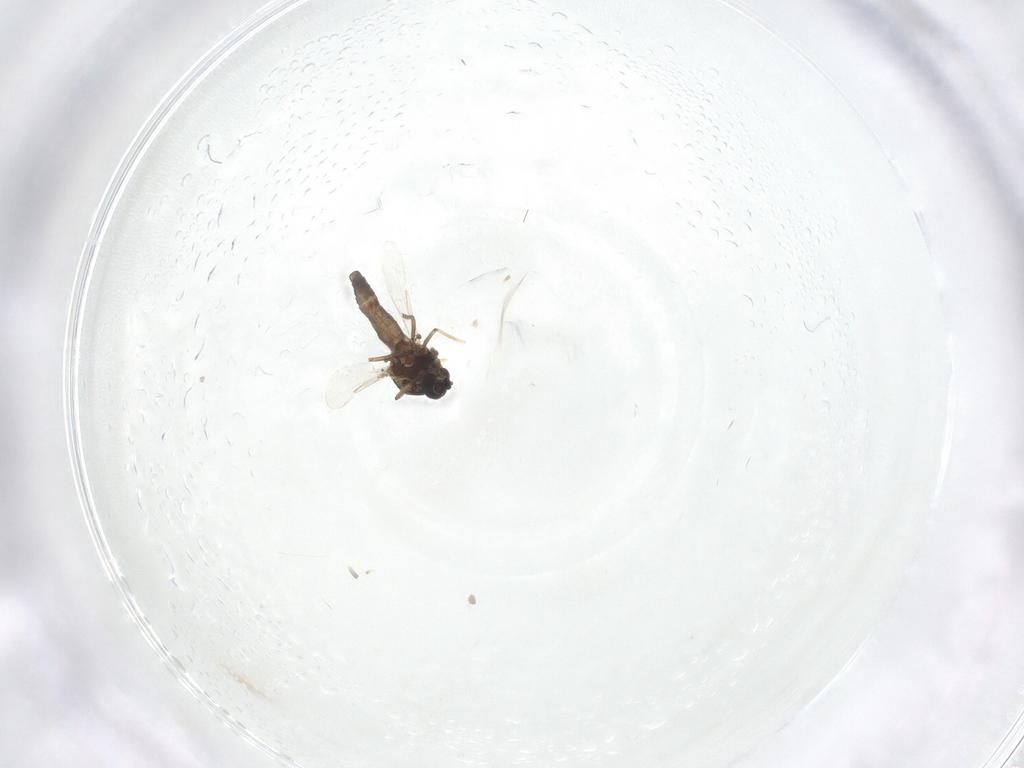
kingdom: Animalia
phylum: Arthropoda
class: Insecta
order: Diptera
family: Ceratopogonidae
